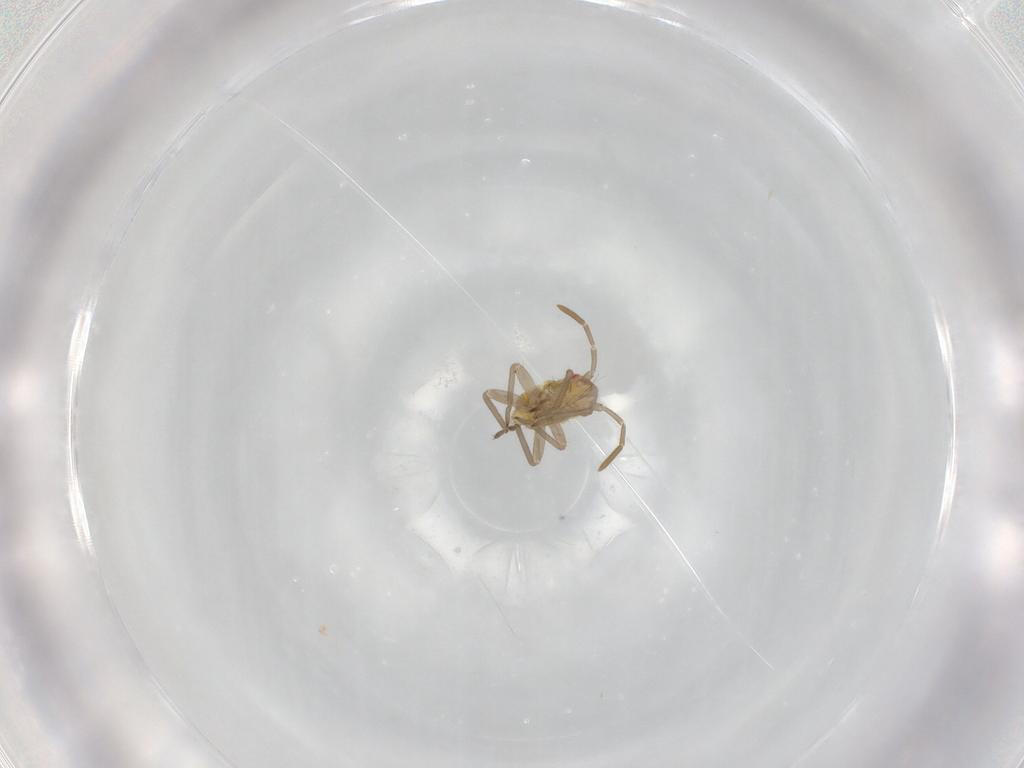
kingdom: Animalia
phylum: Arthropoda
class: Insecta
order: Hemiptera
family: Miridae
